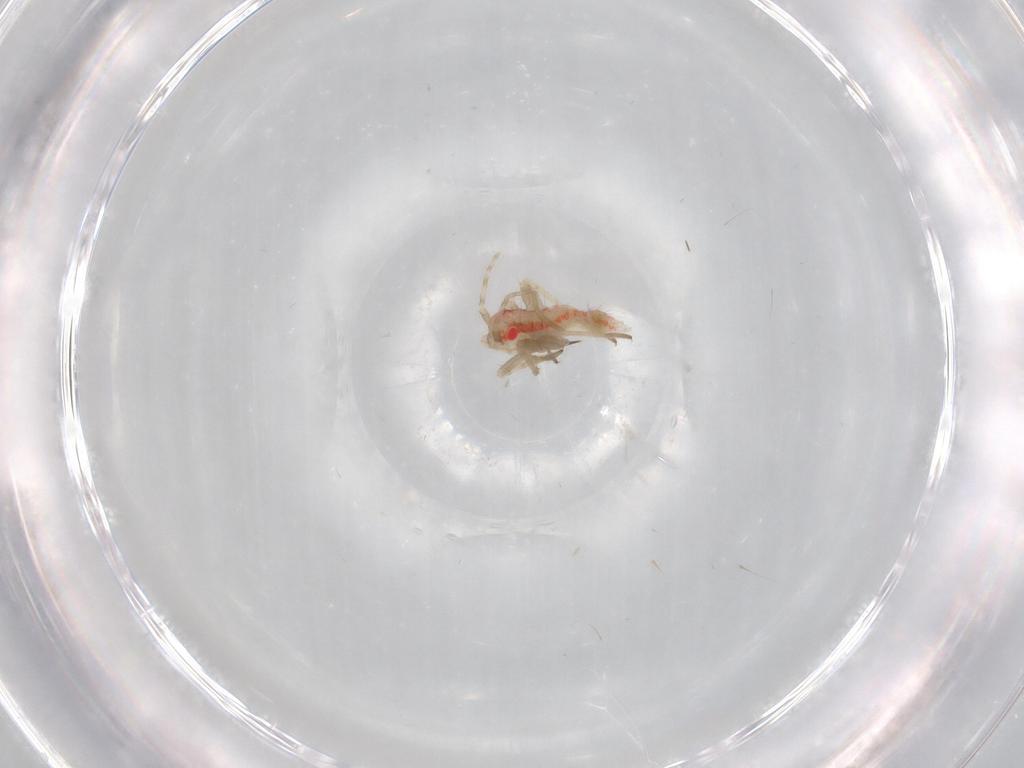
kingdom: Animalia
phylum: Arthropoda
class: Insecta
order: Hemiptera
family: Miridae
